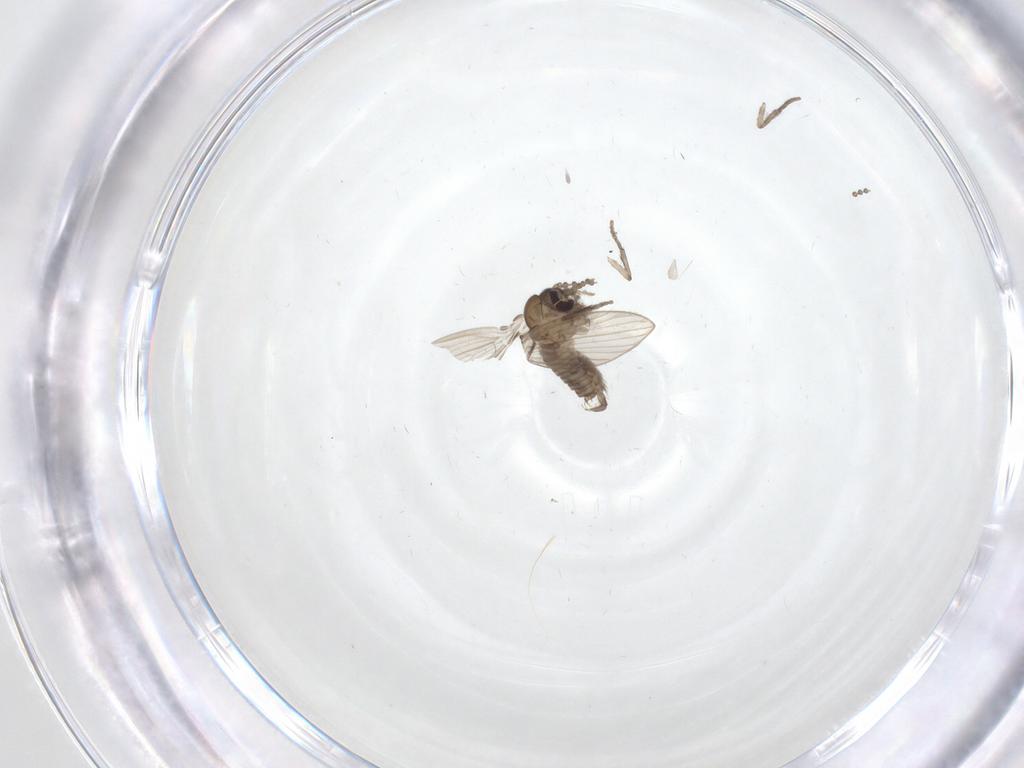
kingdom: Animalia
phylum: Arthropoda
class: Insecta
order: Diptera
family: Psychodidae
